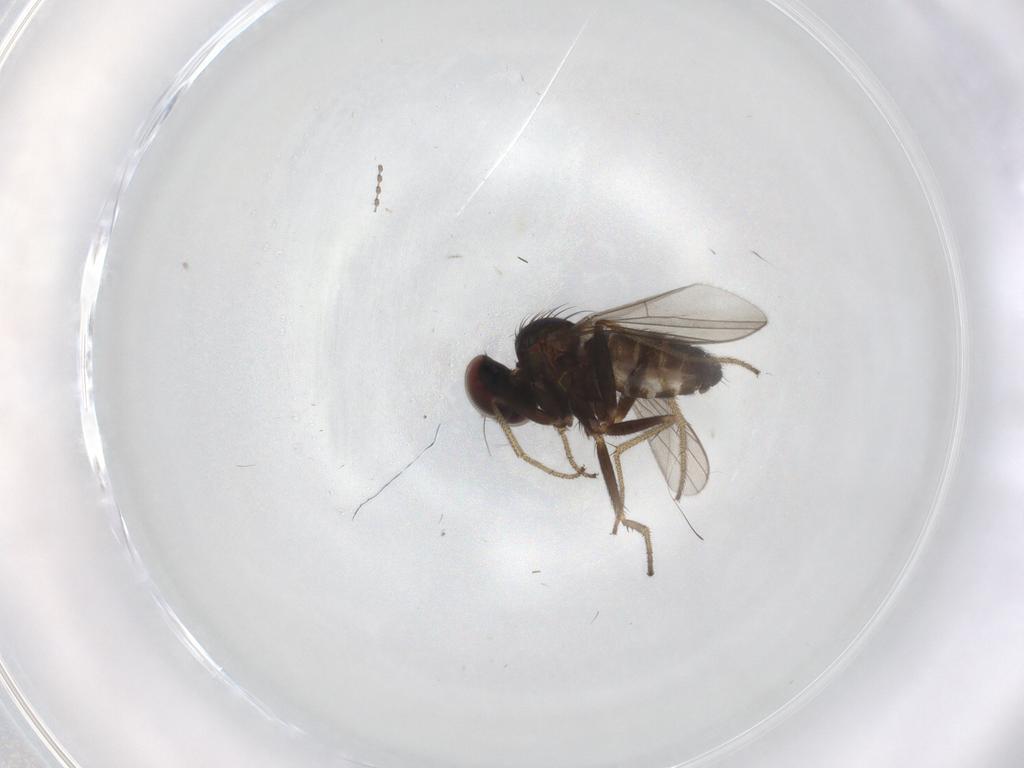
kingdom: Animalia
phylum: Arthropoda
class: Insecta
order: Diptera
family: Dolichopodidae
